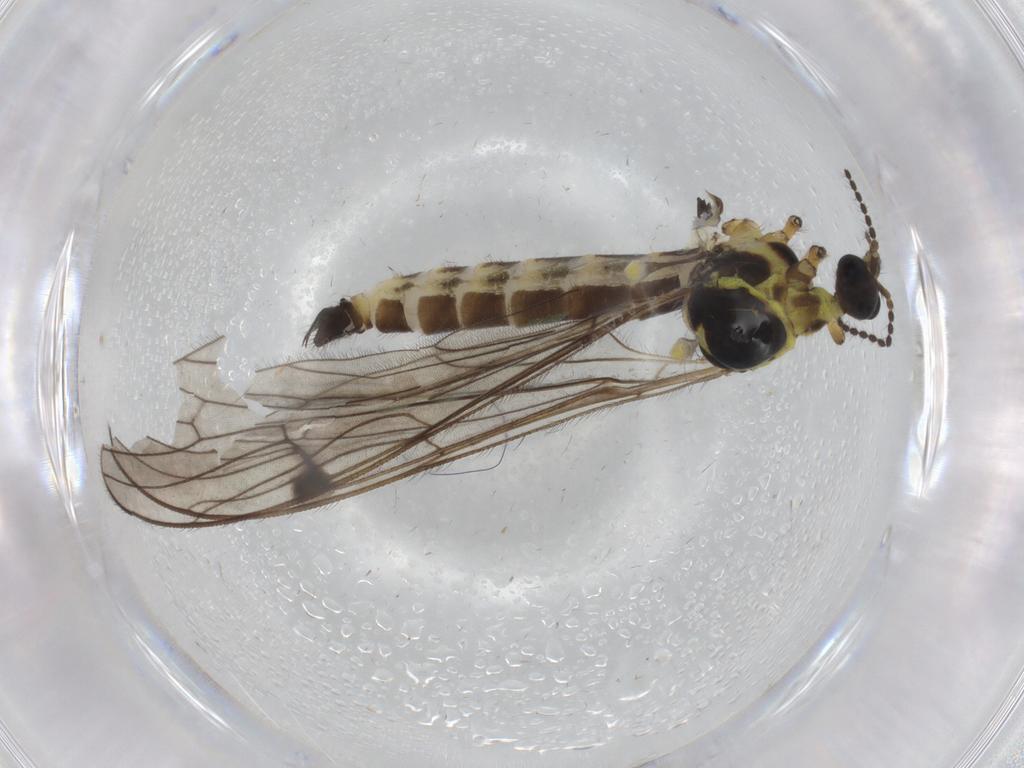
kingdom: Animalia
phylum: Arthropoda
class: Insecta
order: Diptera
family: Limoniidae
